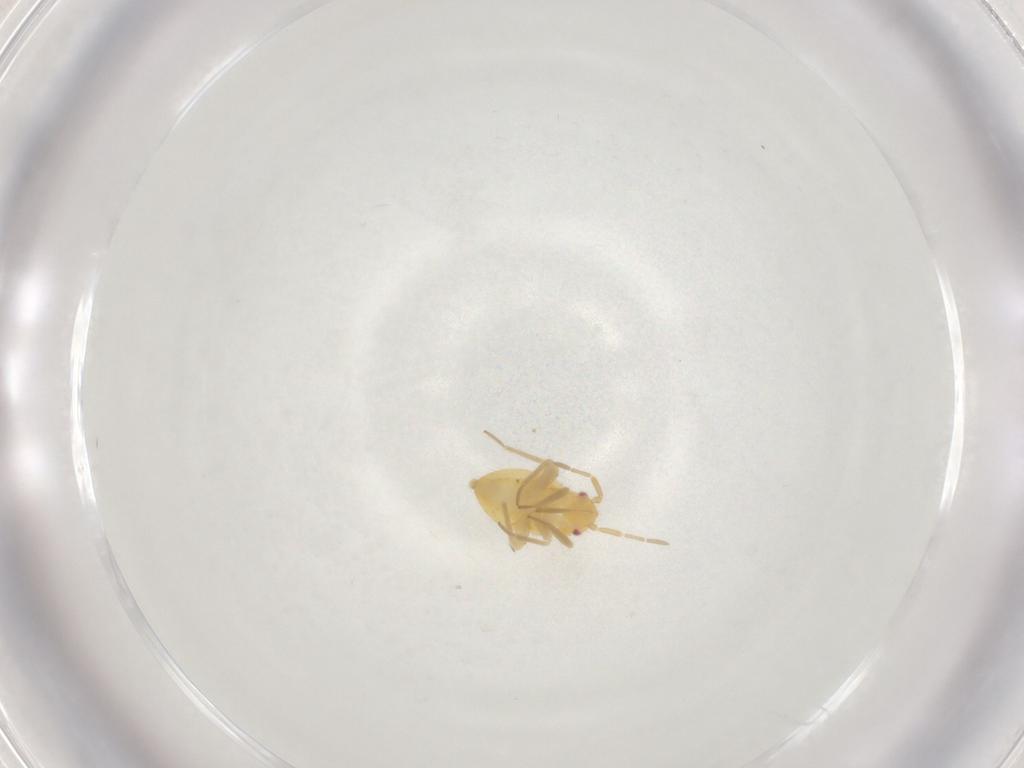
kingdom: Animalia
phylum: Arthropoda
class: Insecta
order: Hemiptera
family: Miridae
